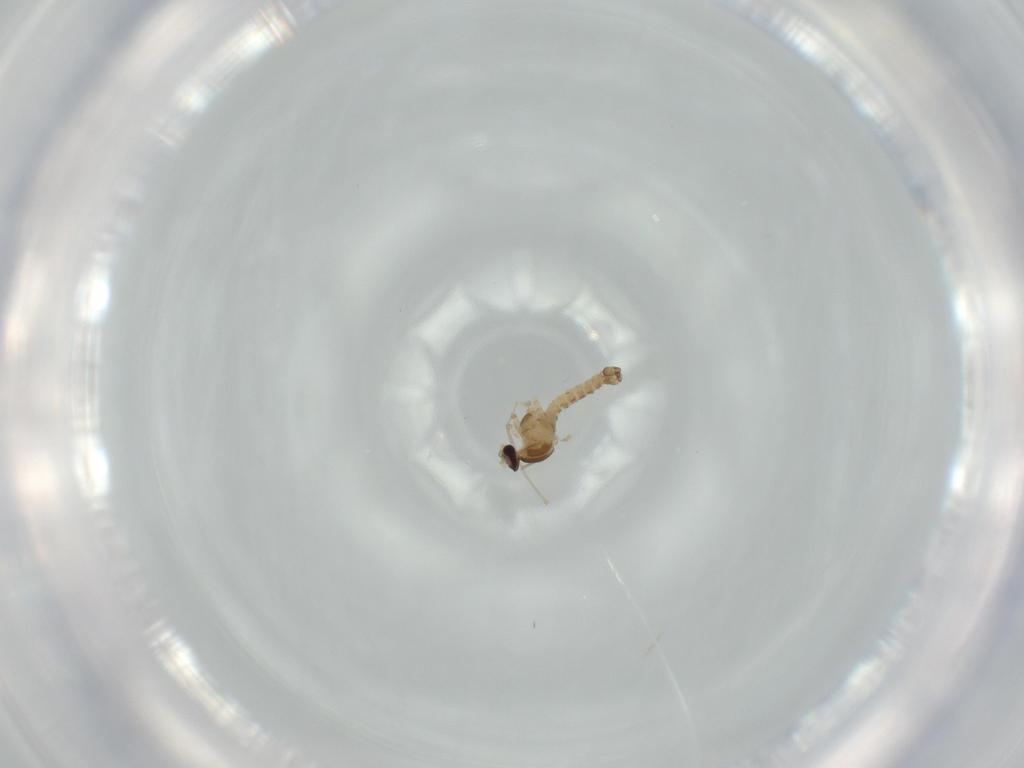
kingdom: Animalia
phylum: Arthropoda
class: Insecta
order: Diptera
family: Cecidomyiidae
